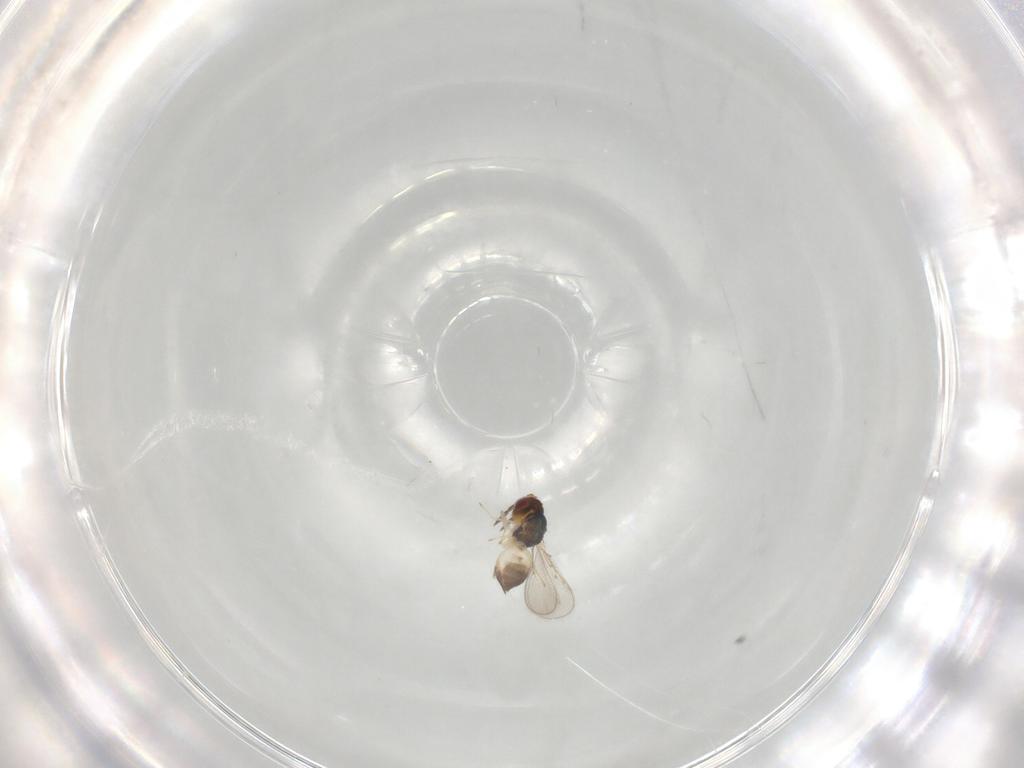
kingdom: Animalia
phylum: Arthropoda
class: Insecta
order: Hymenoptera
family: Eulophidae
